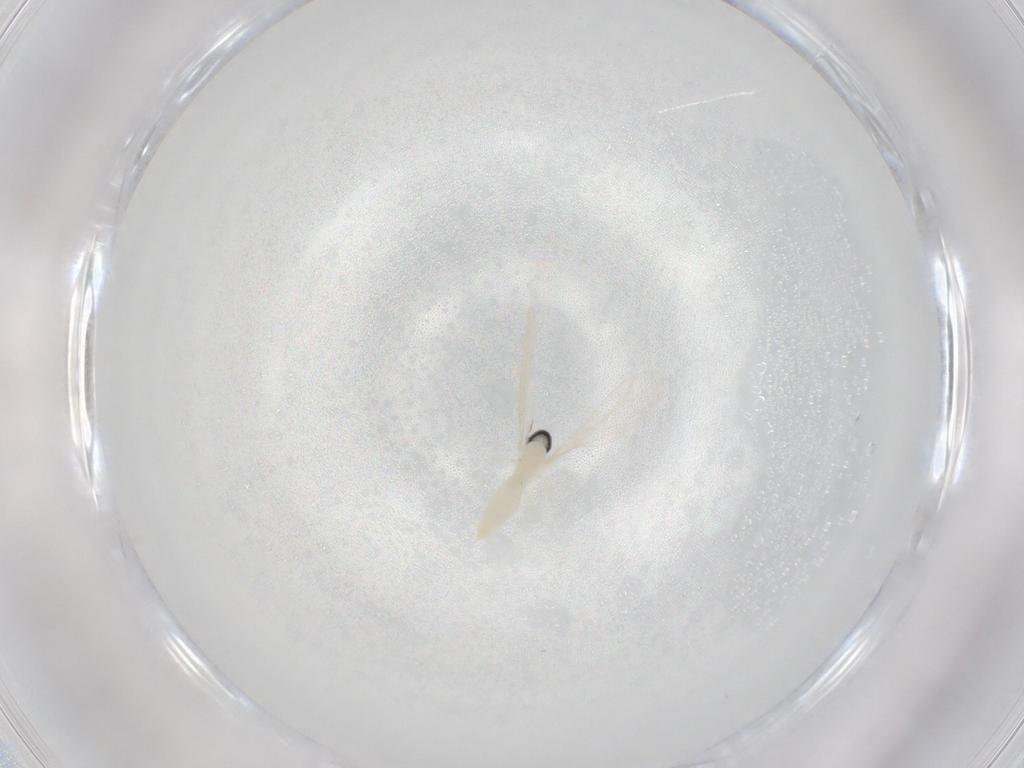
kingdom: Animalia
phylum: Arthropoda
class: Insecta
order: Diptera
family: Cecidomyiidae
